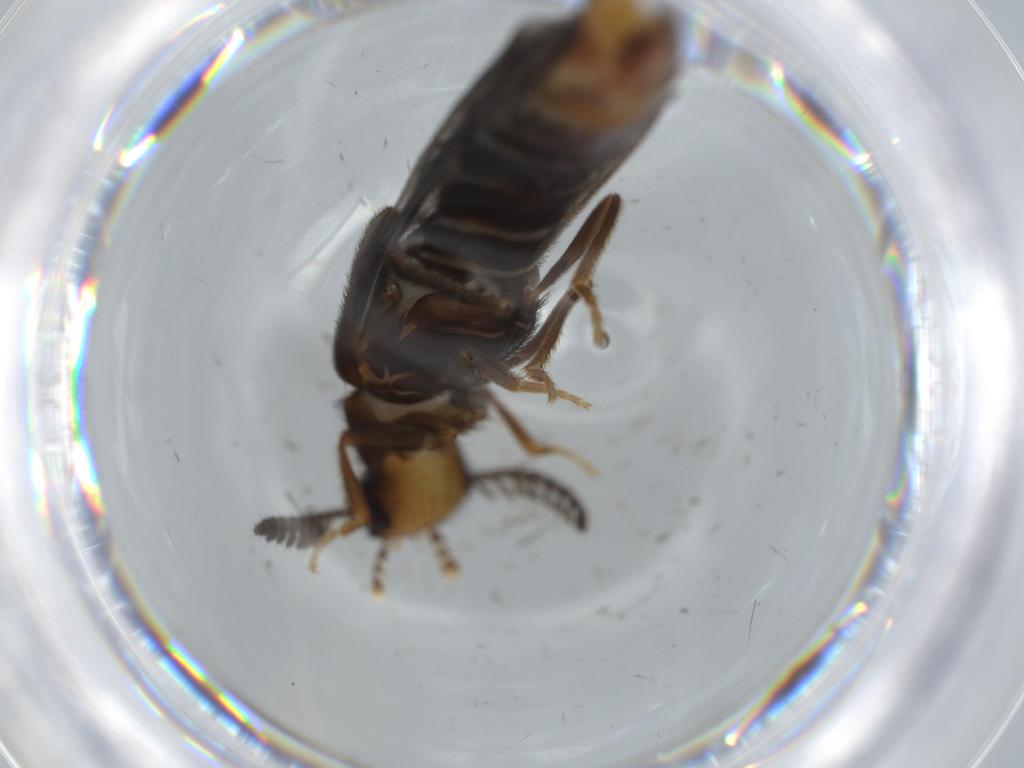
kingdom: Animalia
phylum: Arthropoda
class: Insecta
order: Coleoptera
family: Phengodidae
